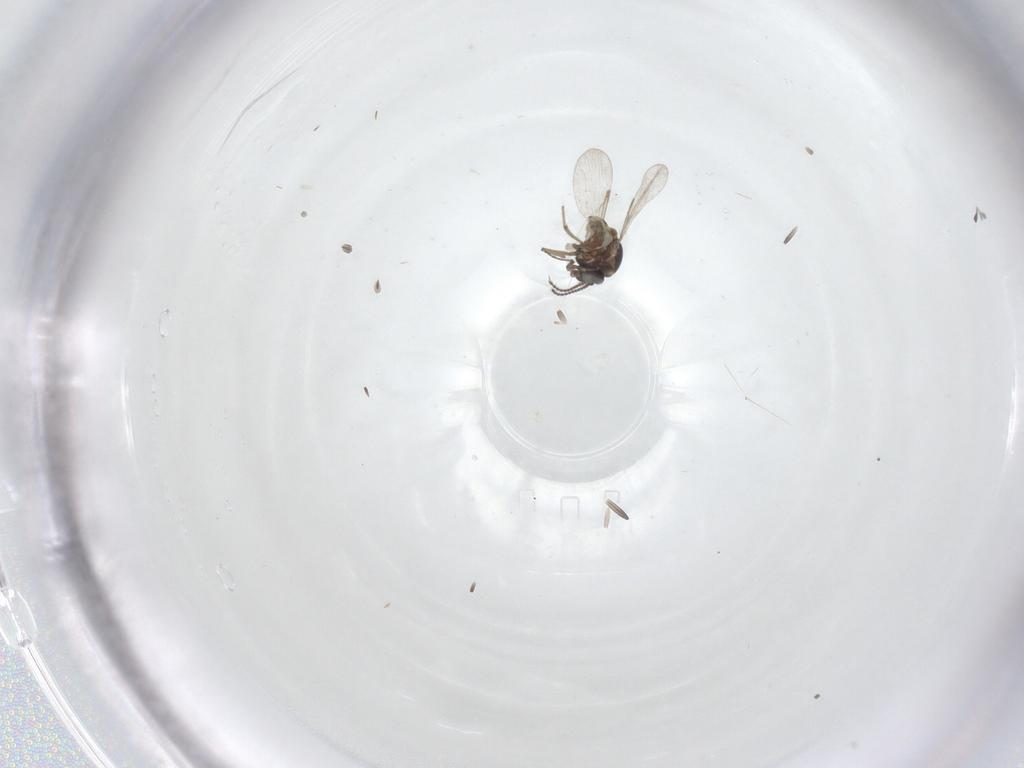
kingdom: Animalia
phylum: Arthropoda
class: Insecta
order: Diptera
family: Ceratopogonidae
